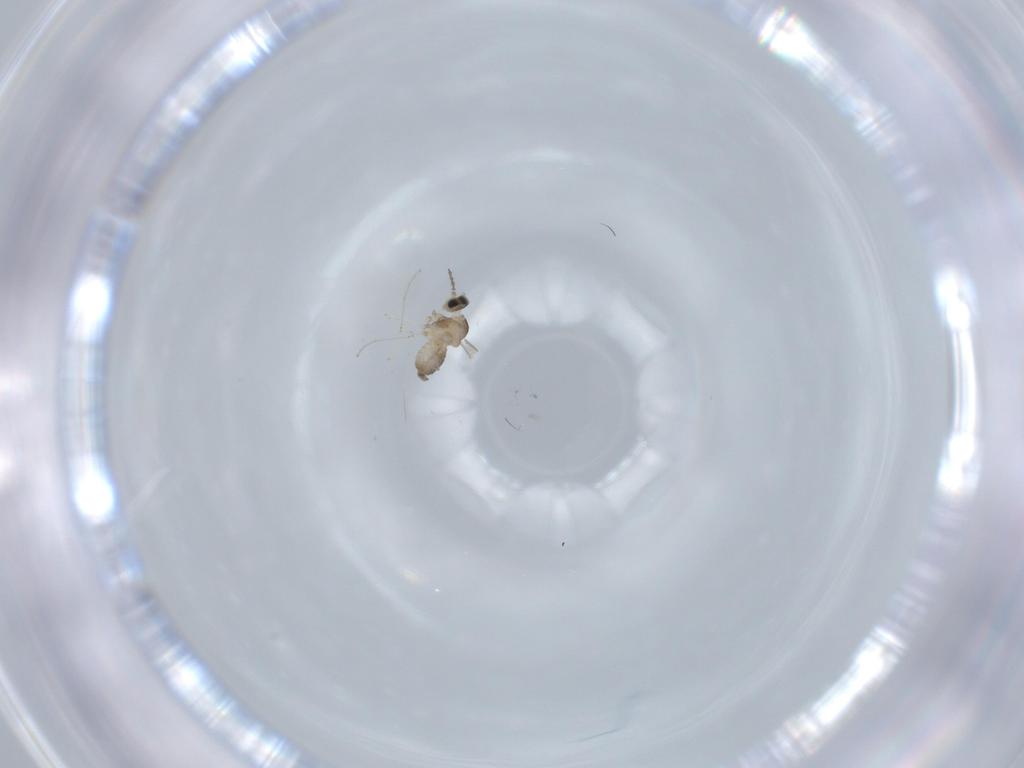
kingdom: Animalia
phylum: Arthropoda
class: Insecta
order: Diptera
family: Cecidomyiidae
